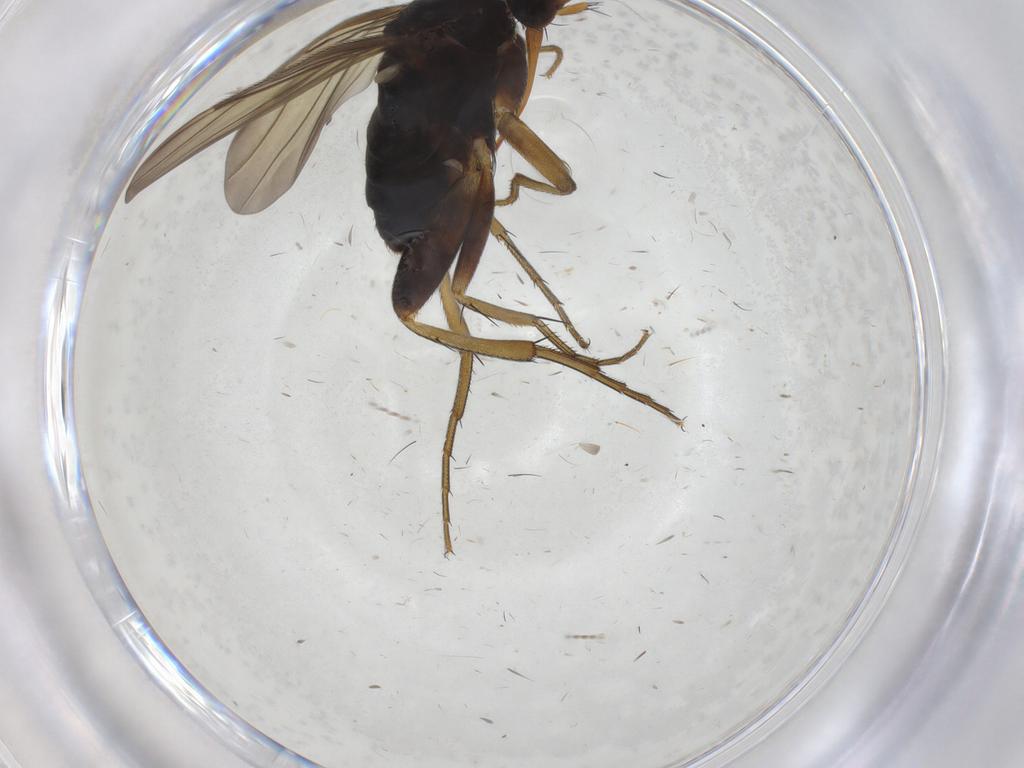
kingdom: Animalia
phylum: Arthropoda
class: Insecta
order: Diptera
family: Phoridae
